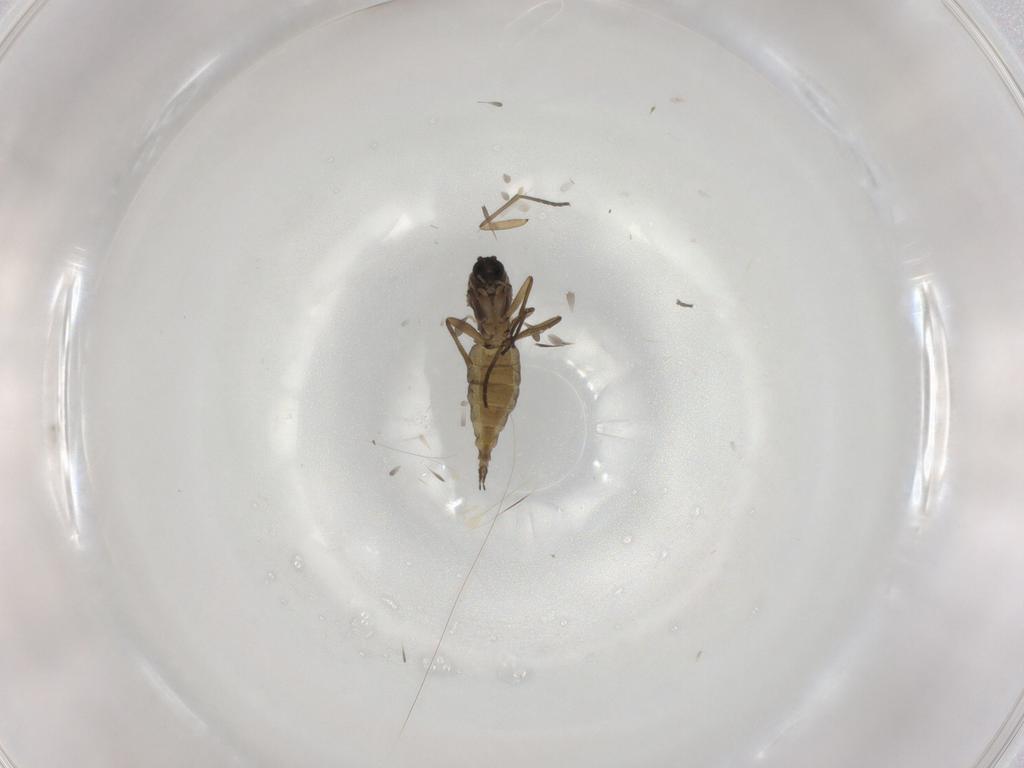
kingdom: Animalia
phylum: Arthropoda
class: Insecta
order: Diptera
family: Sciaridae
